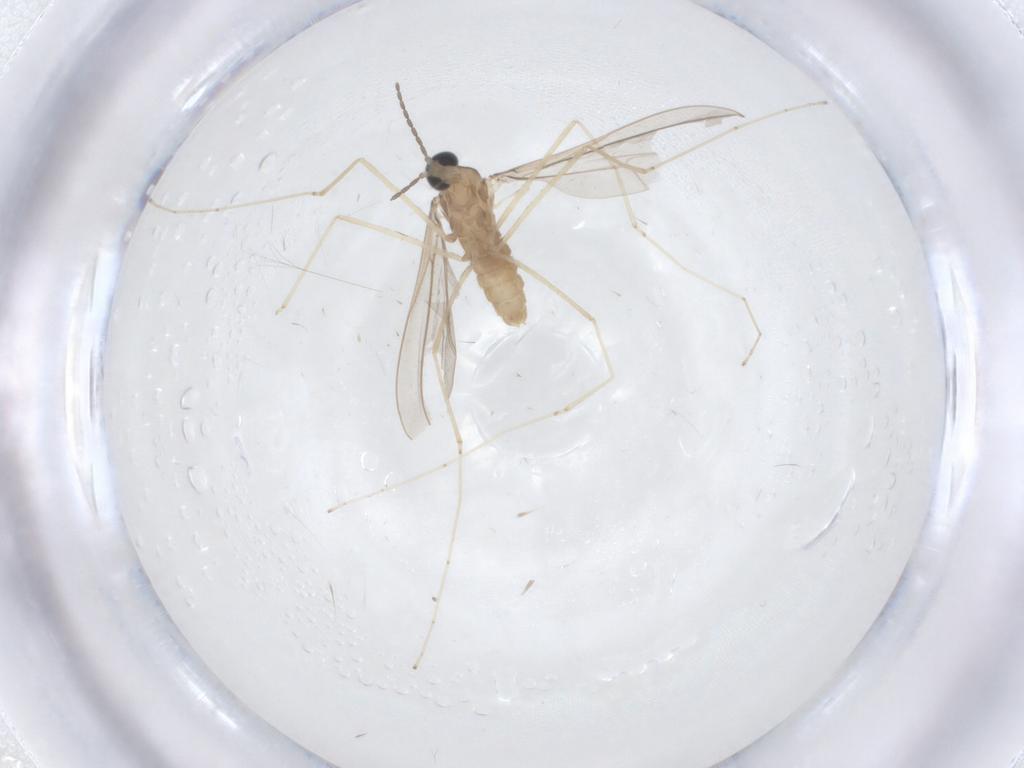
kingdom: Animalia
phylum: Arthropoda
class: Insecta
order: Diptera
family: Cecidomyiidae
